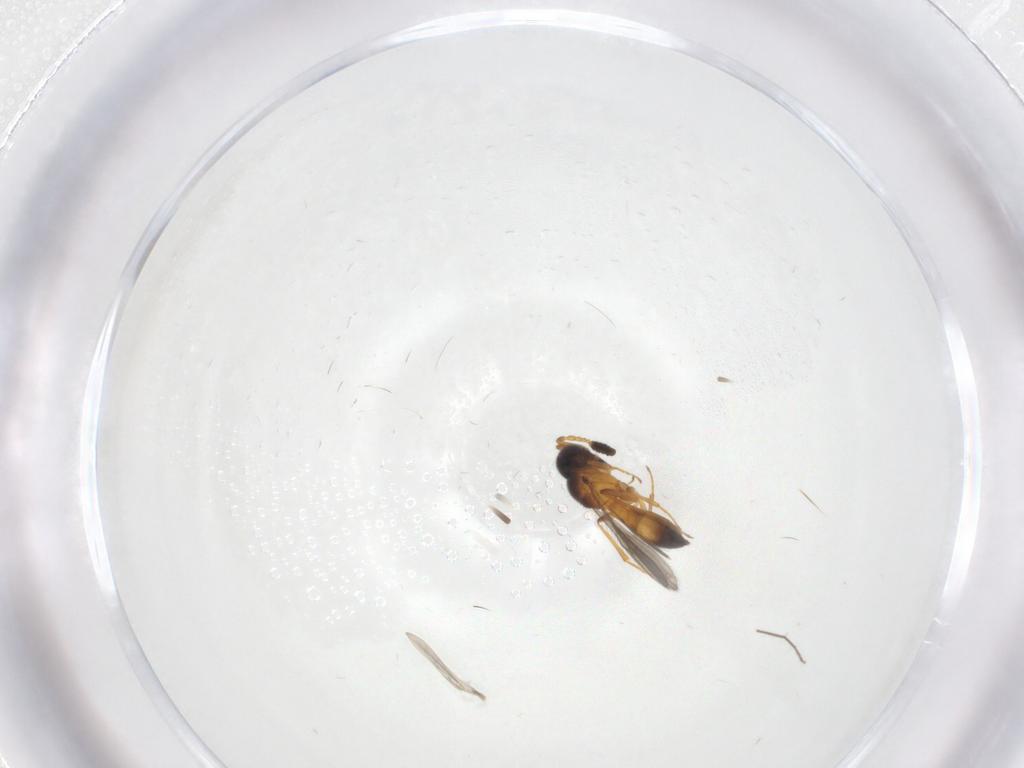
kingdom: Animalia
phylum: Arthropoda
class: Insecta
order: Hymenoptera
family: Scelionidae
